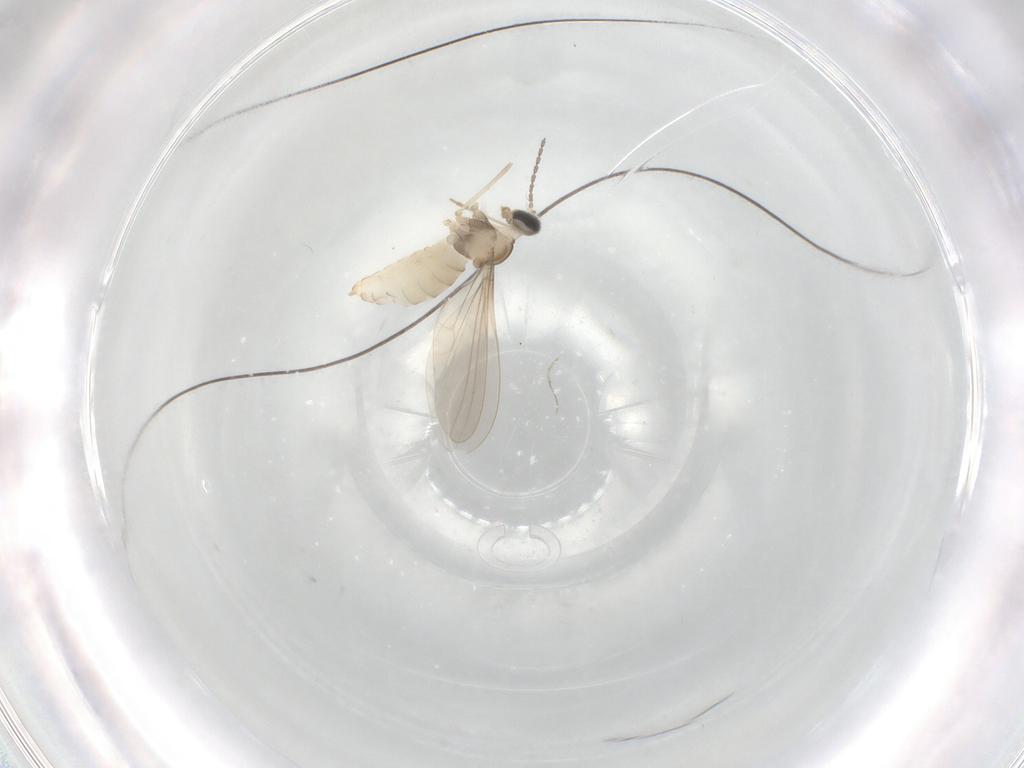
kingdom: Animalia
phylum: Arthropoda
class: Insecta
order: Diptera
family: Cecidomyiidae
